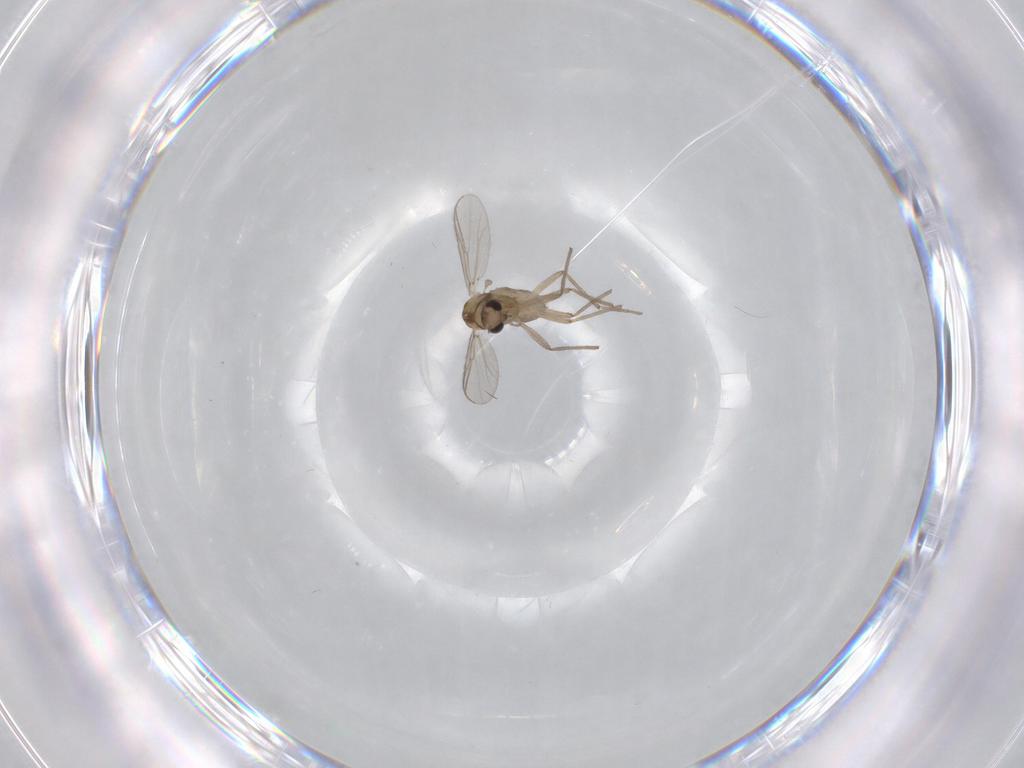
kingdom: Animalia
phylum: Arthropoda
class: Insecta
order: Diptera
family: Chironomidae
